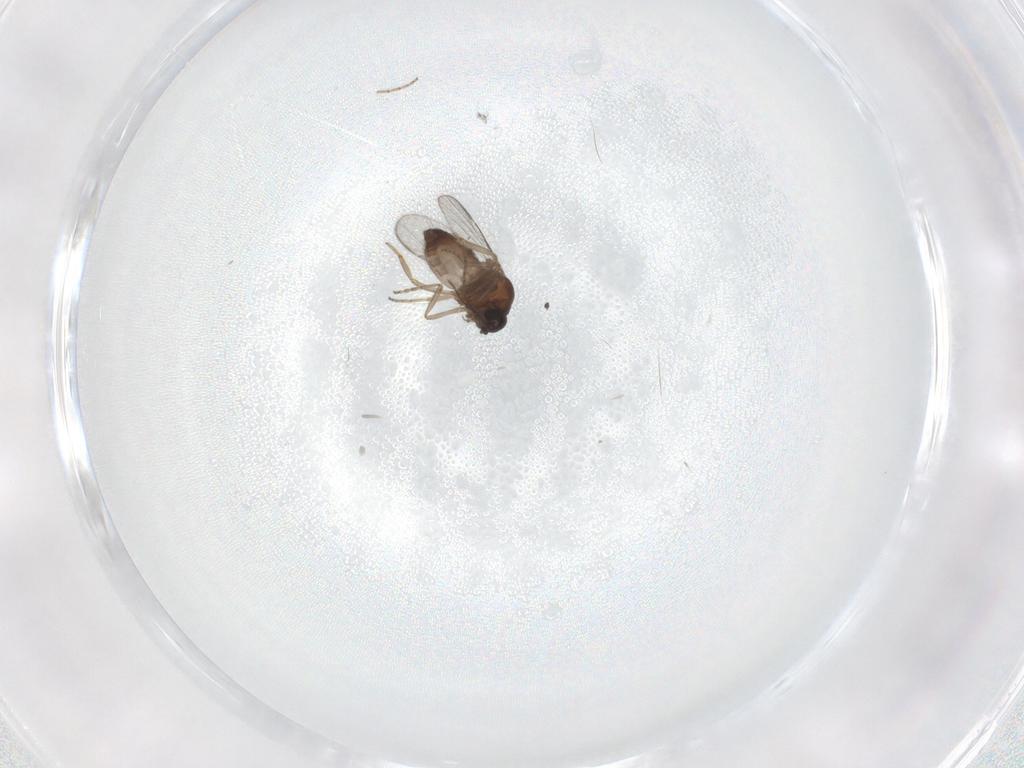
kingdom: Animalia
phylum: Arthropoda
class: Insecta
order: Diptera
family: Ceratopogonidae
